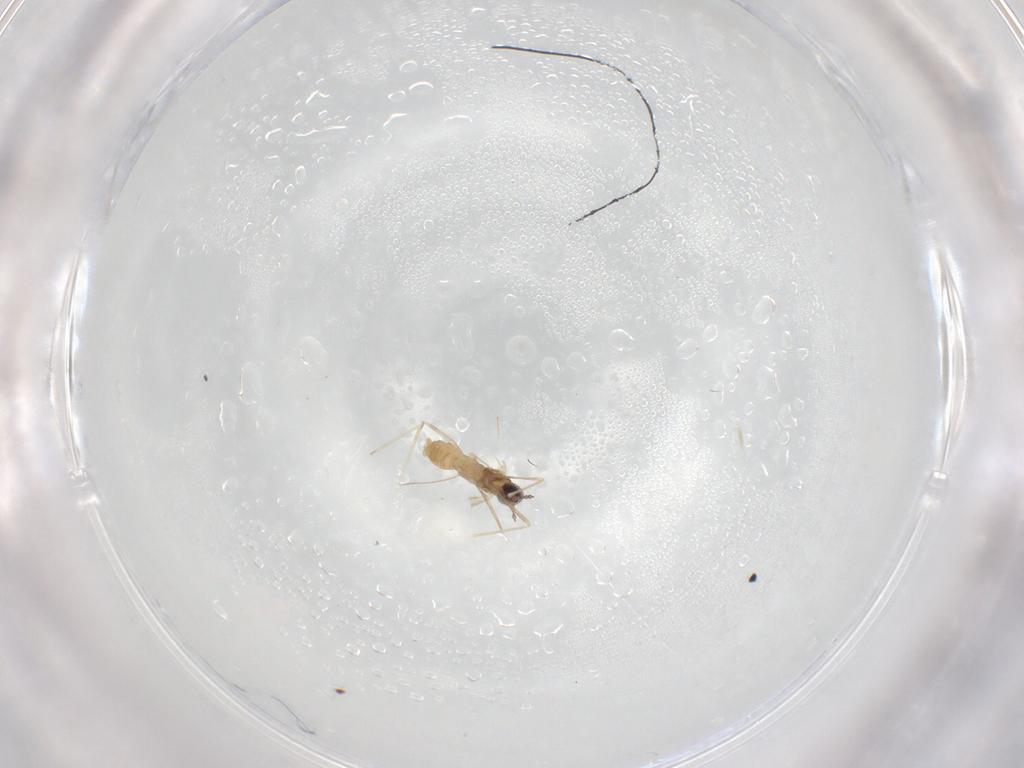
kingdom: Animalia
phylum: Arthropoda
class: Insecta
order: Diptera
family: Cecidomyiidae
